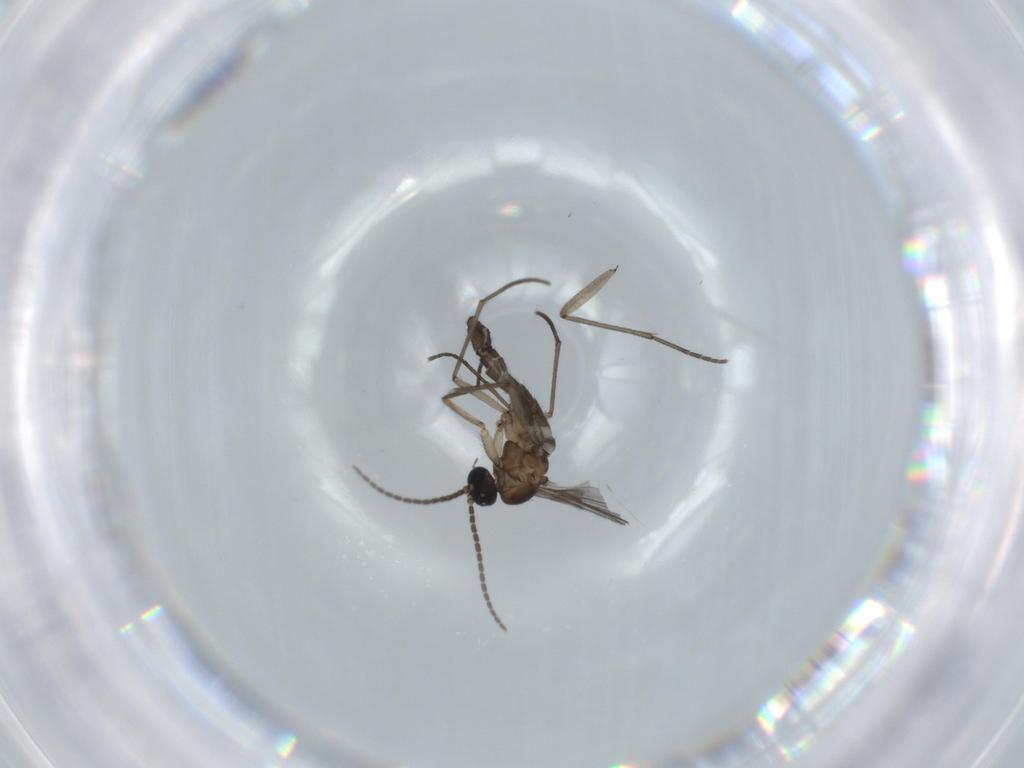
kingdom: Animalia
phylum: Arthropoda
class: Insecta
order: Diptera
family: Sciaridae
